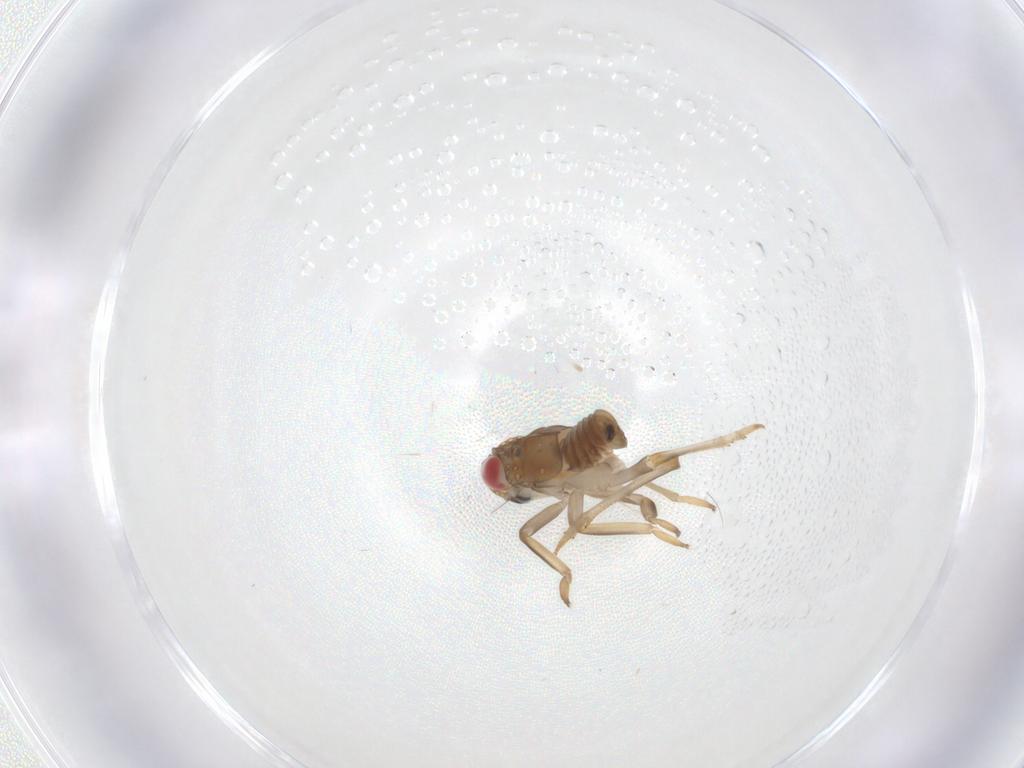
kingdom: Animalia
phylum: Arthropoda
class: Insecta
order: Hemiptera
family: Issidae
